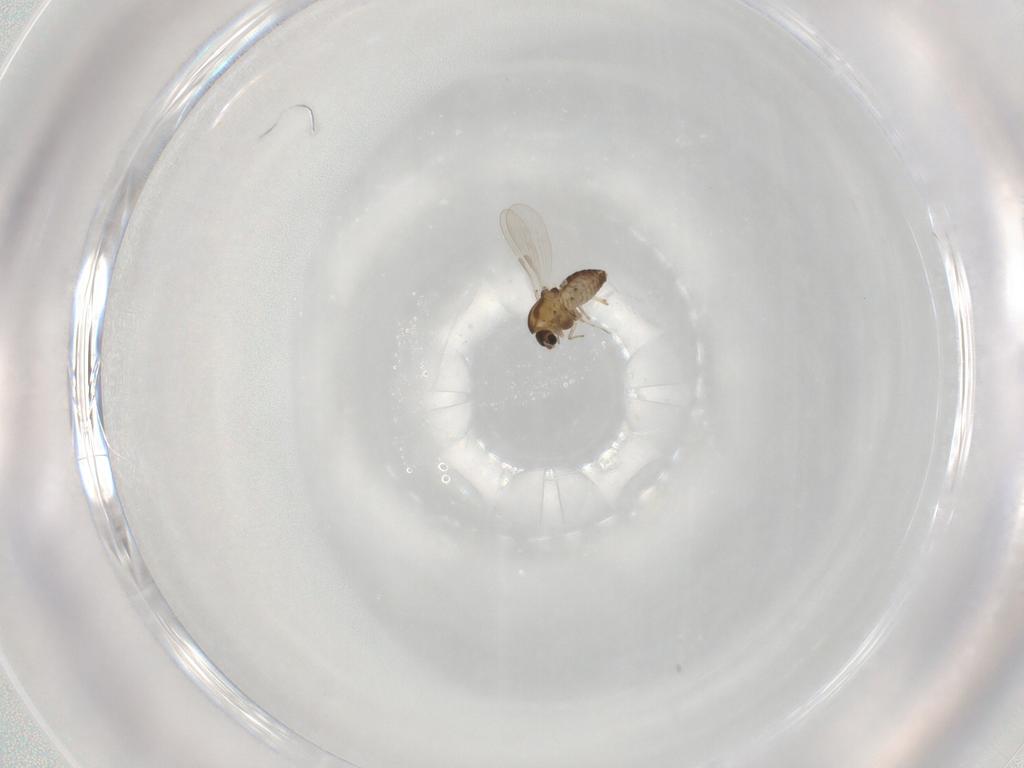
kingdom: Animalia
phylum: Arthropoda
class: Insecta
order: Diptera
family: Chironomidae
